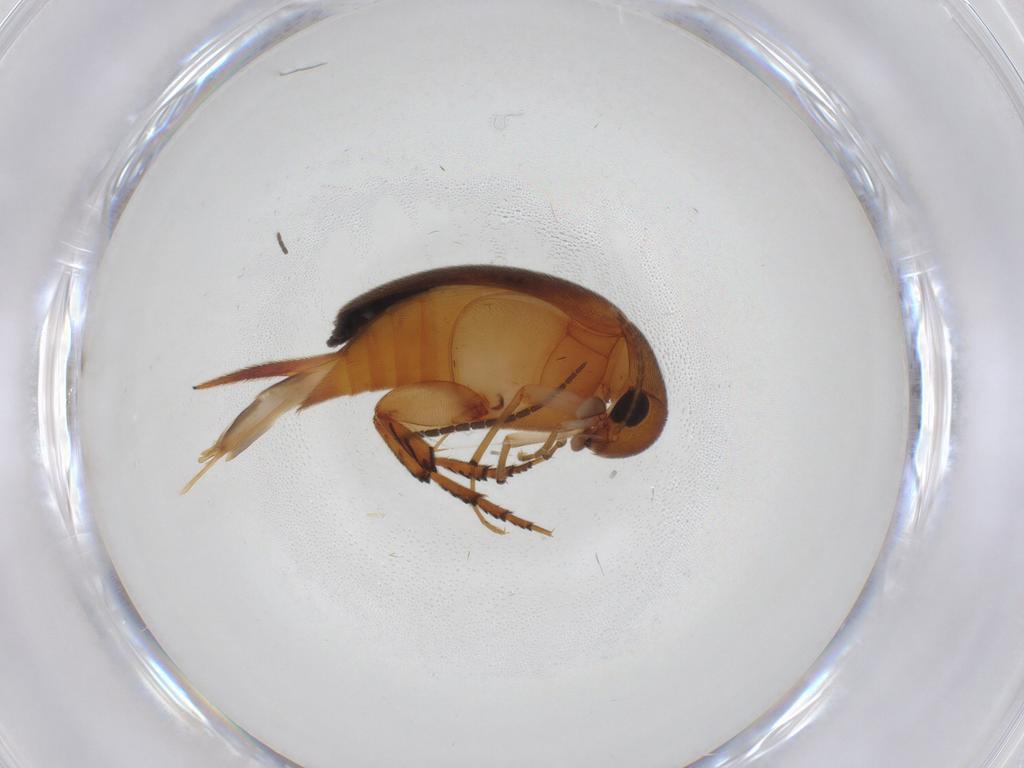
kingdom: Animalia
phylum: Arthropoda
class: Insecta
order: Coleoptera
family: Mordellidae
